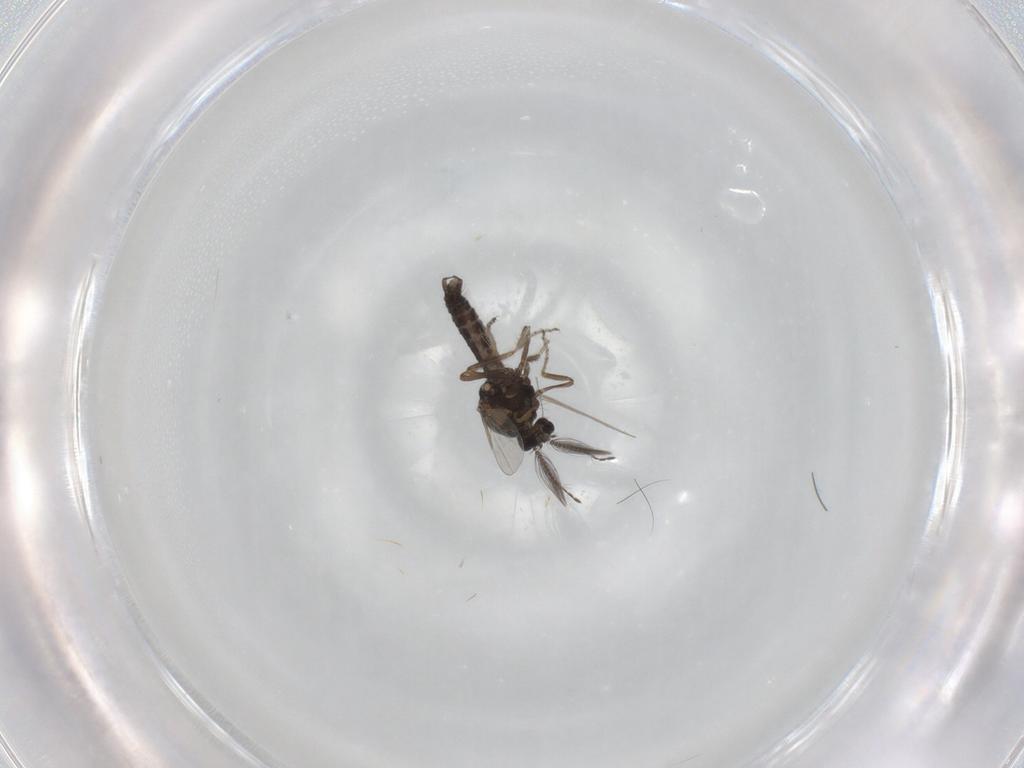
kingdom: Animalia
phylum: Arthropoda
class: Insecta
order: Diptera
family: Ceratopogonidae
